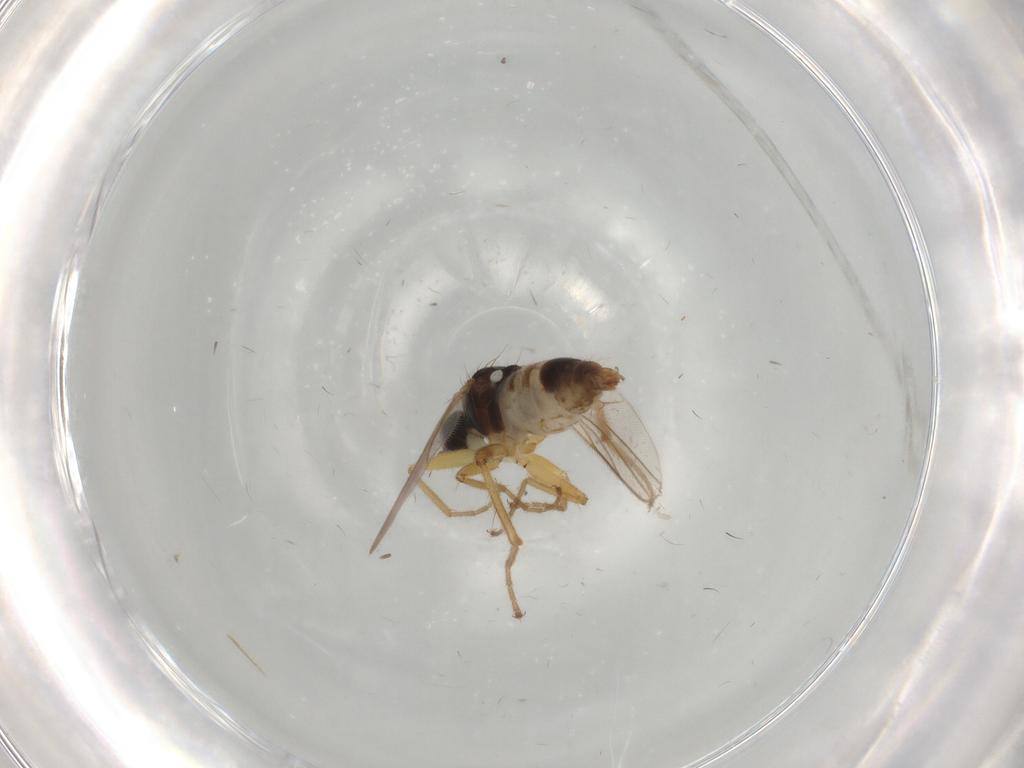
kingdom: Animalia
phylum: Arthropoda
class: Insecta
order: Diptera
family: Hybotidae
